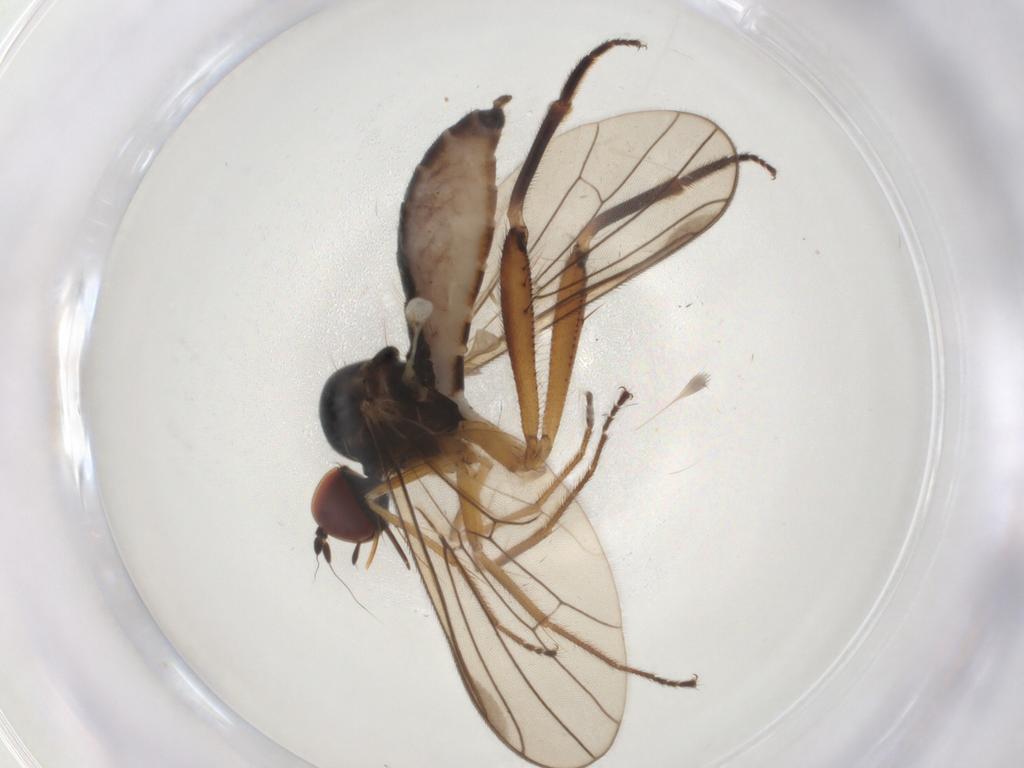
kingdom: Animalia
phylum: Arthropoda
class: Insecta
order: Diptera
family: Hybotidae
